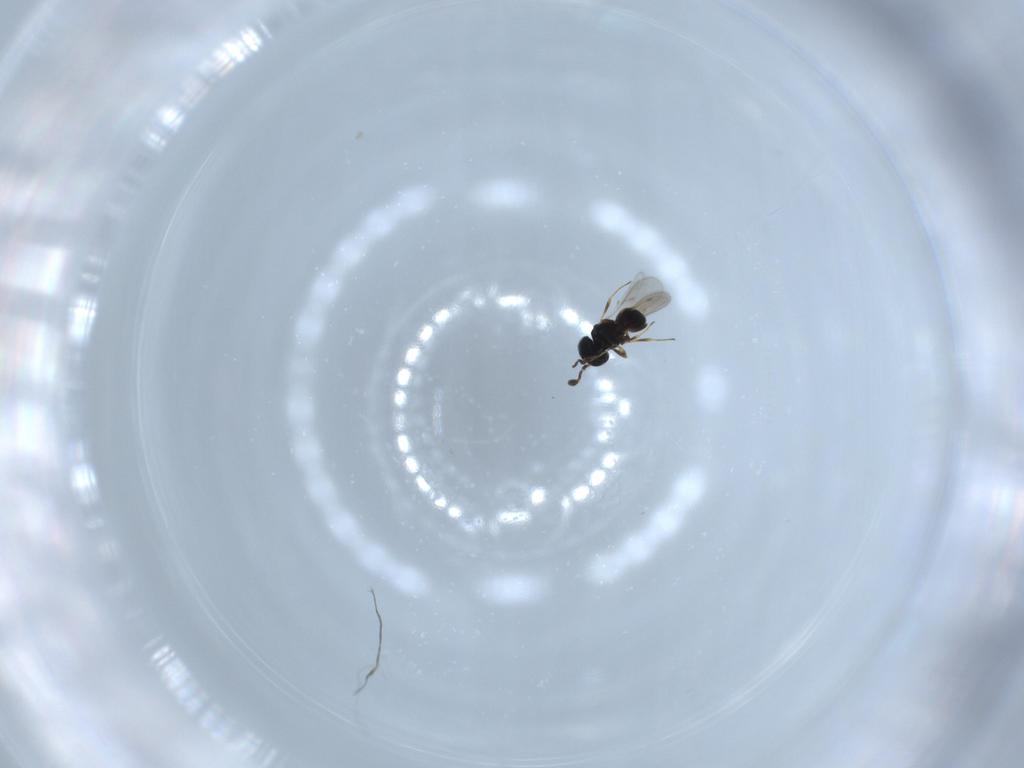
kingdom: Animalia
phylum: Arthropoda
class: Insecta
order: Hymenoptera
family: Scelionidae
